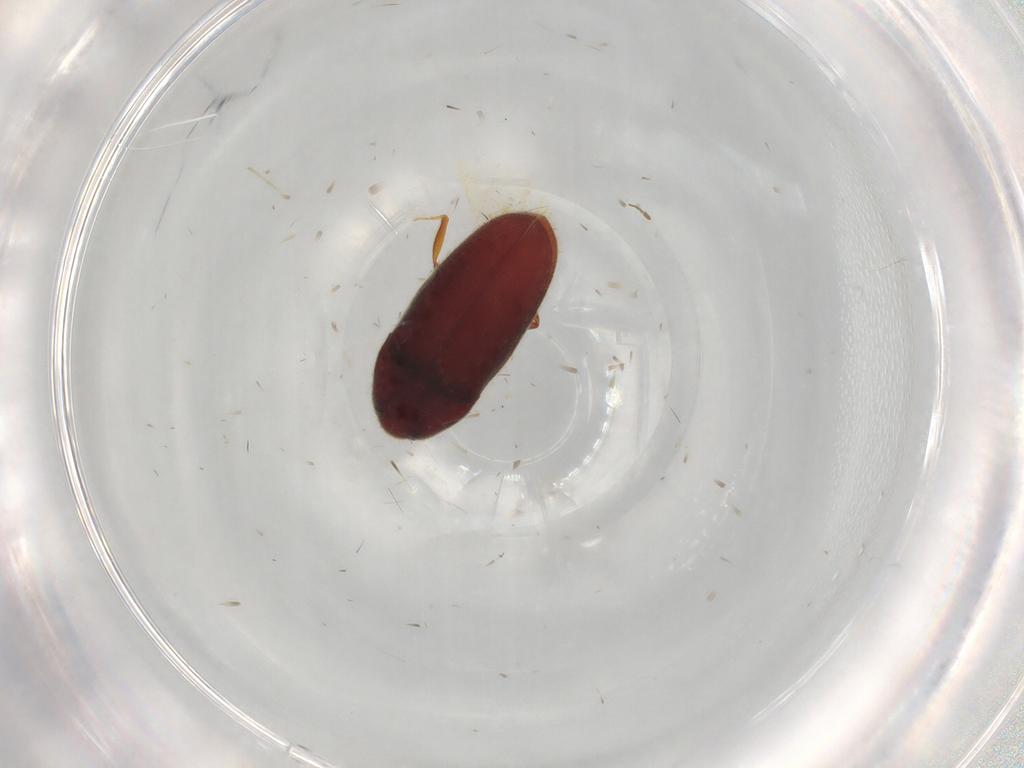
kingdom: Animalia
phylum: Arthropoda
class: Insecta
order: Coleoptera
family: Throscidae
